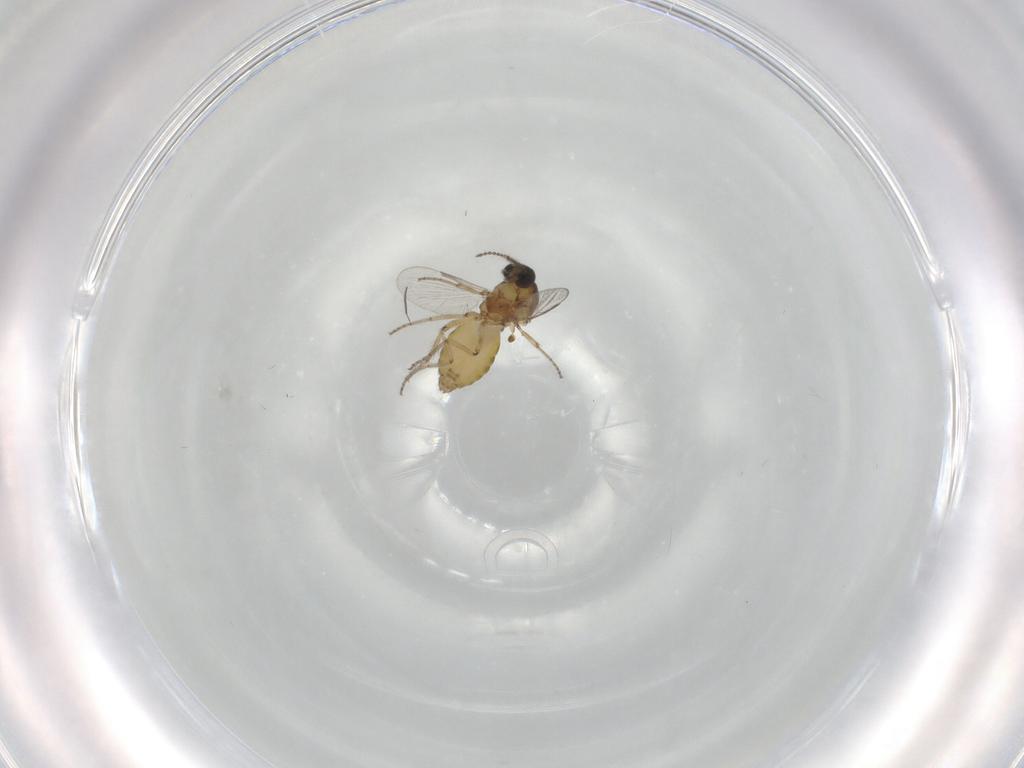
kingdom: Animalia
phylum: Arthropoda
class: Insecta
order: Diptera
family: Ceratopogonidae
